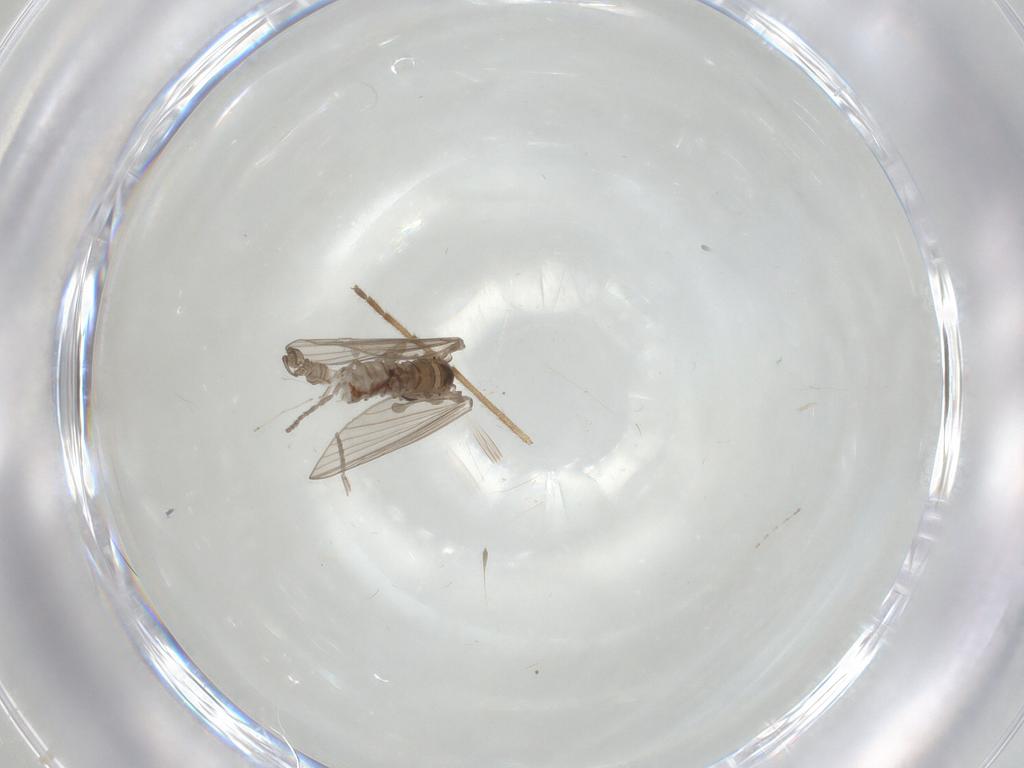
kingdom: Animalia
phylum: Arthropoda
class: Insecta
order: Diptera
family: Psychodidae
